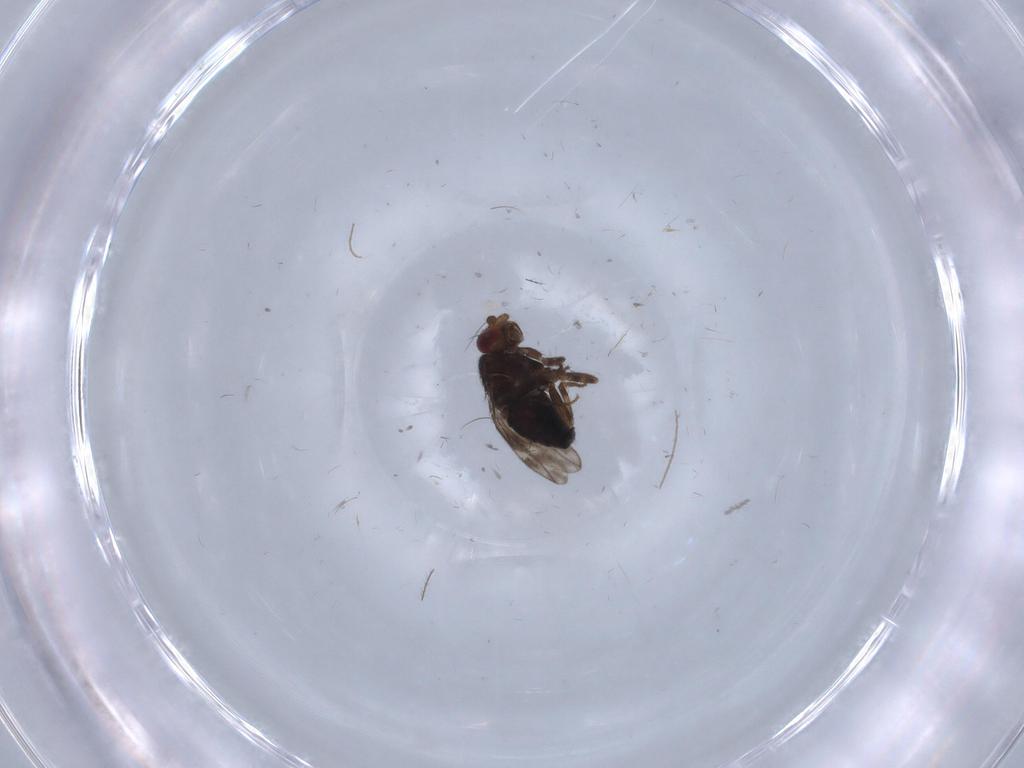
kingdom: Animalia
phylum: Arthropoda
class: Insecta
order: Diptera
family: Sphaeroceridae
